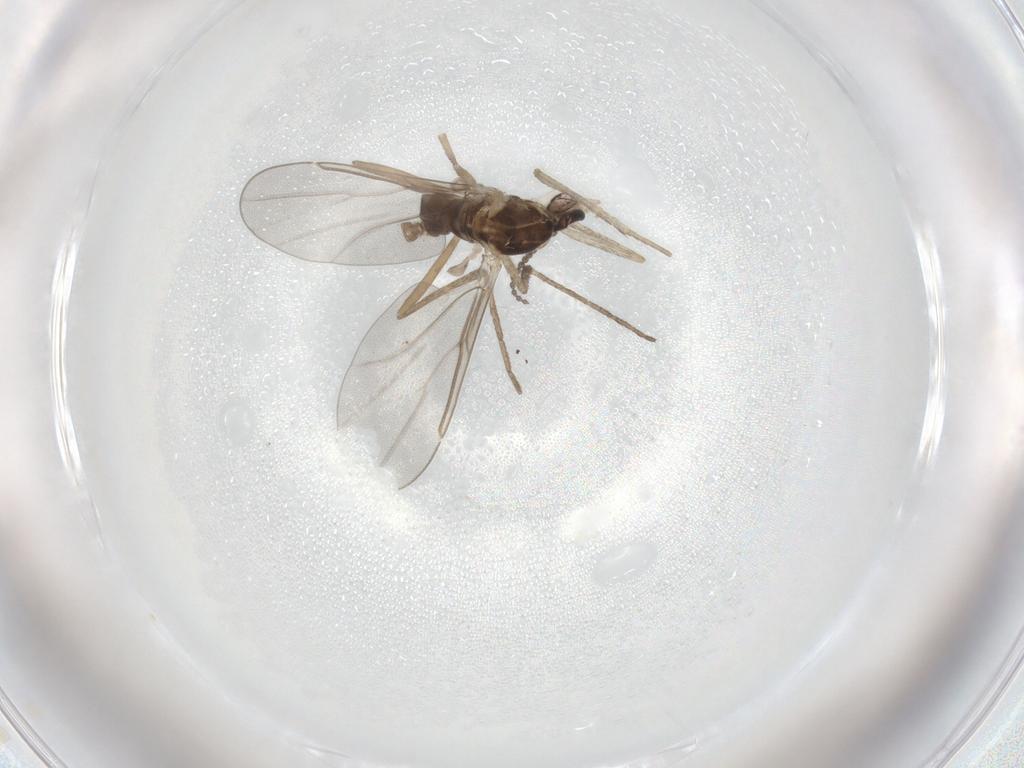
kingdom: Animalia
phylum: Arthropoda
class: Insecta
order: Diptera
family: Cecidomyiidae
